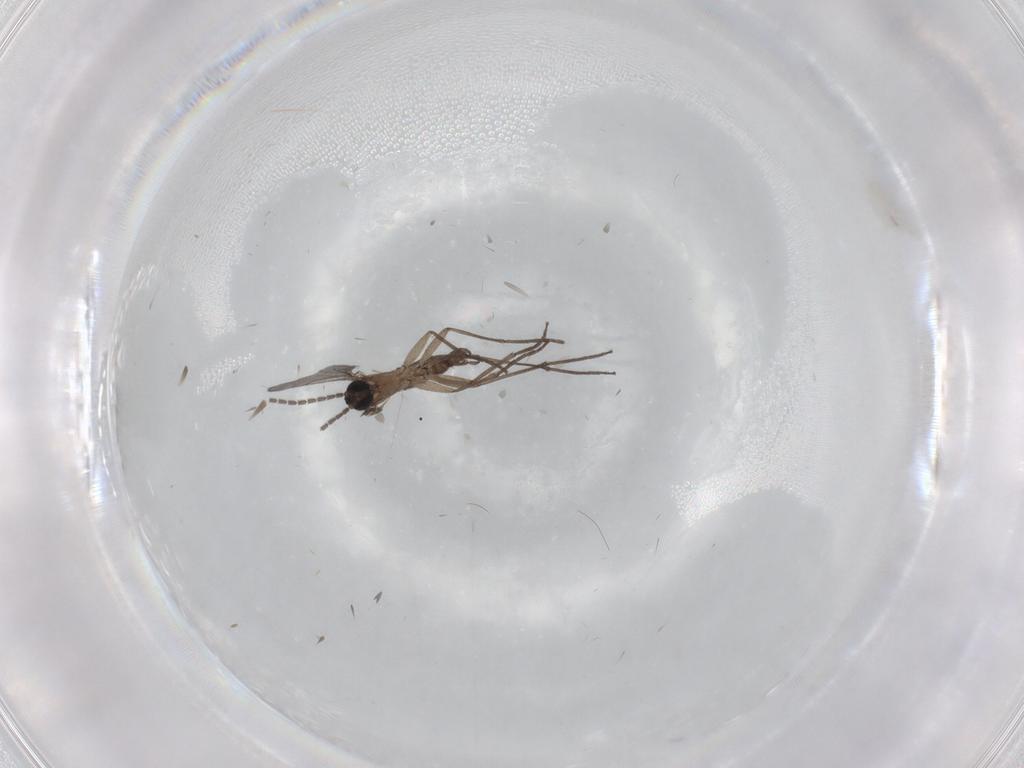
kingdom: Animalia
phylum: Arthropoda
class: Insecta
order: Diptera
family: Sciaridae
